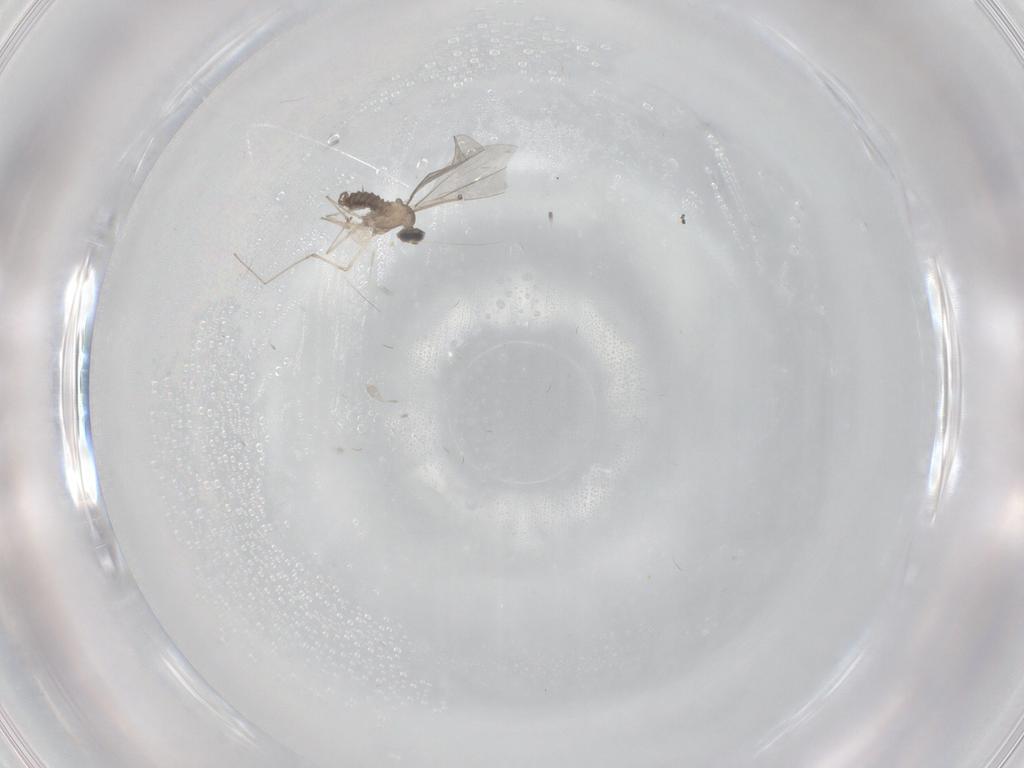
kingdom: Animalia
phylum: Arthropoda
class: Insecta
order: Diptera
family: Cecidomyiidae
